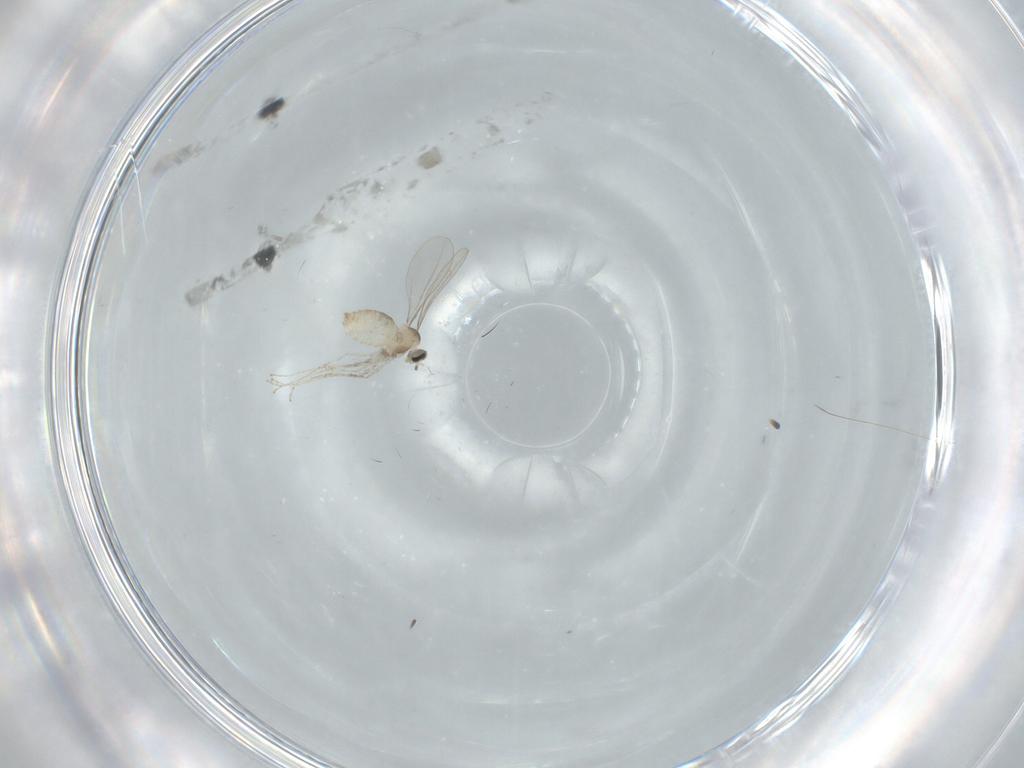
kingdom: Animalia
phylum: Arthropoda
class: Insecta
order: Diptera
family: Cecidomyiidae
